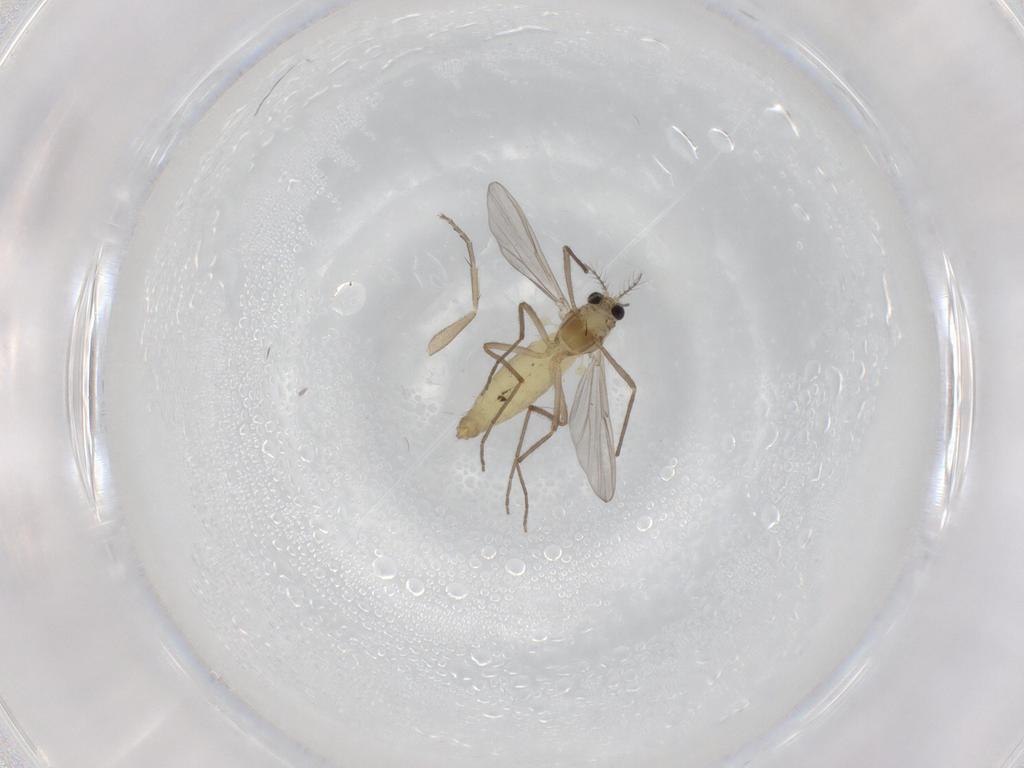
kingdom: Animalia
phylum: Arthropoda
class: Insecta
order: Diptera
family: Chironomidae
